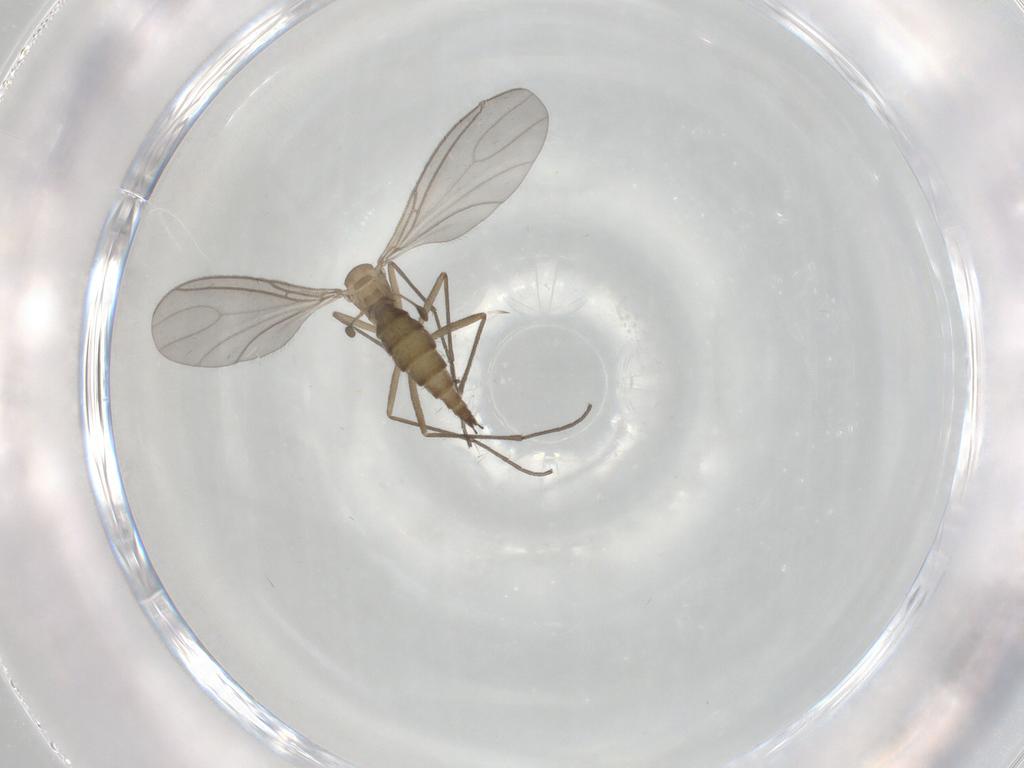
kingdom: Animalia
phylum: Arthropoda
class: Insecta
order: Diptera
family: Sciaridae
